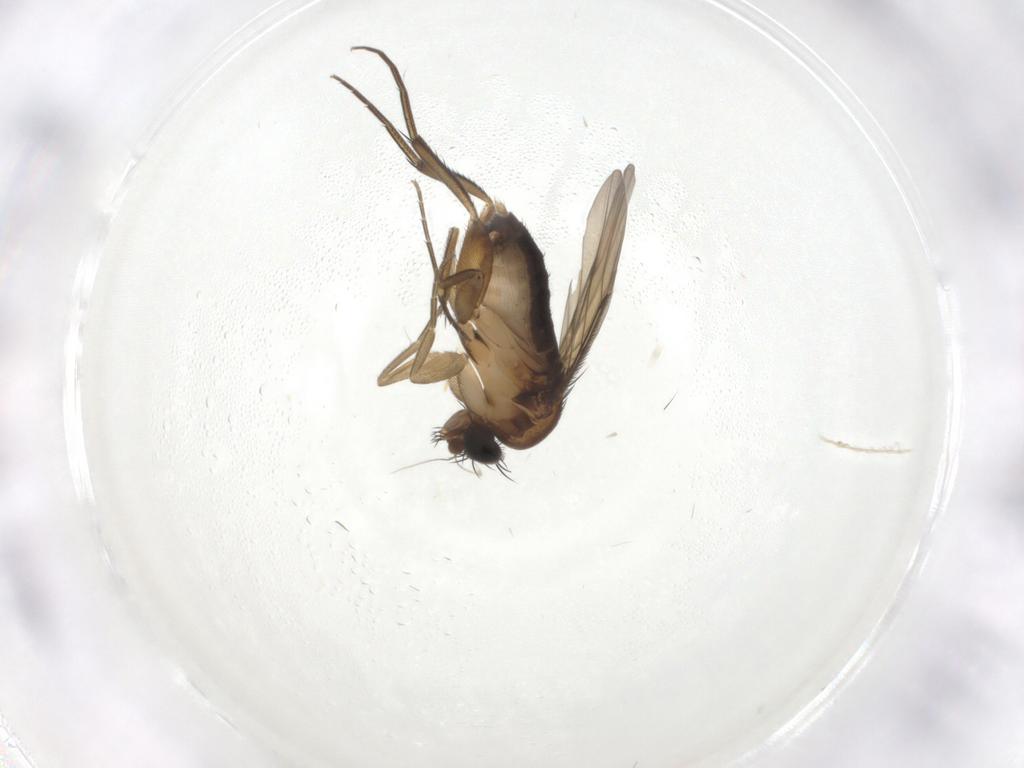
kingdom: Animalia
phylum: Arthropoda
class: Insecta
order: Diptera
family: Phoridae
